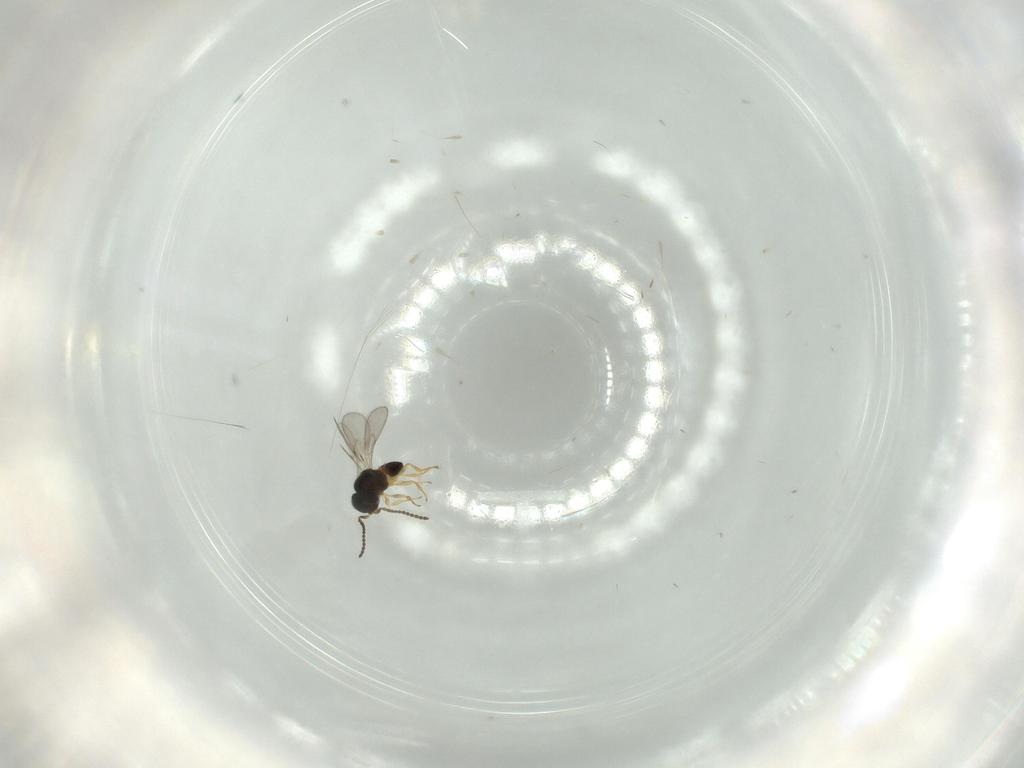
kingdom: Animalia
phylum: Arthropoda
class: Insecta
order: Hymenoptera
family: Scelionidae
